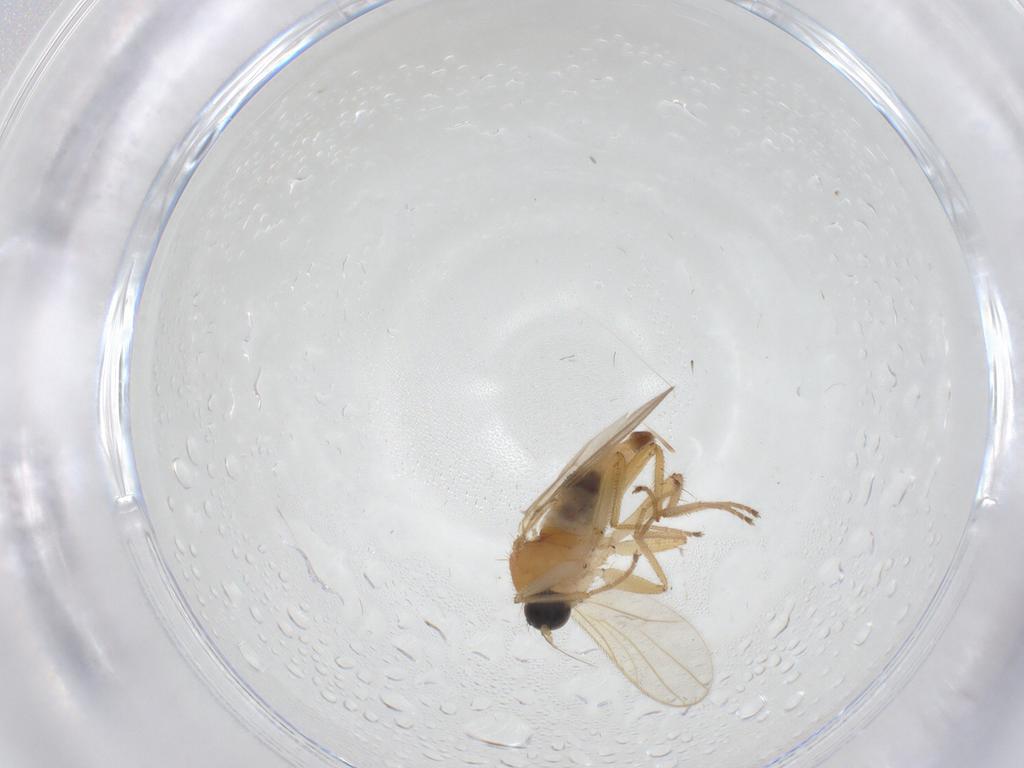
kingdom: Animalia
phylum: Arthropoda
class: Insecta
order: Diptera
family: Hybotidae
